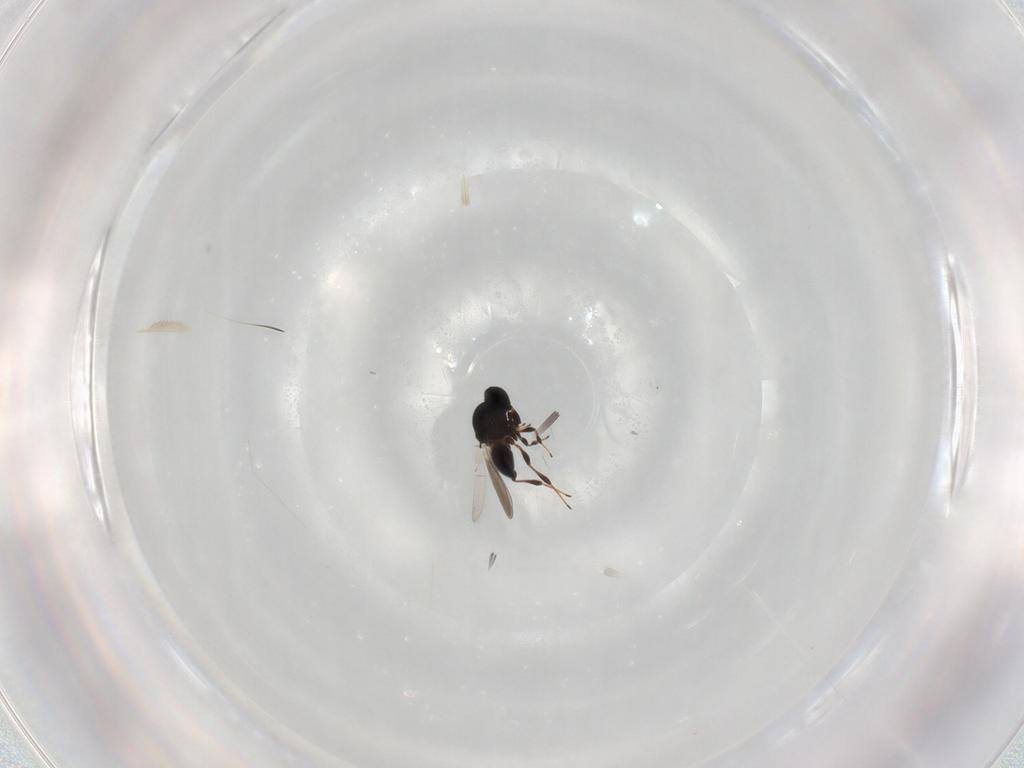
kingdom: Animalia
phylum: Arthropoda
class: Insecta
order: Hymenoptera
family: Platygastridae
